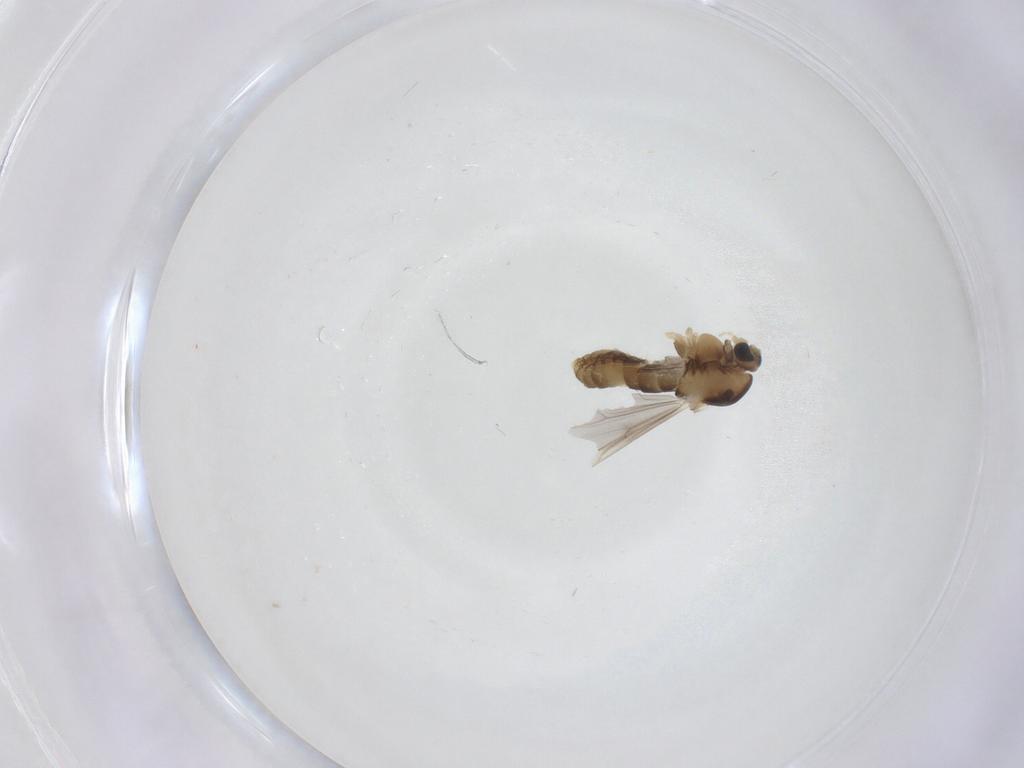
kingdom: Animalia
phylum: Arthropoda
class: Insecta
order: Diptera
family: Chironomidae
